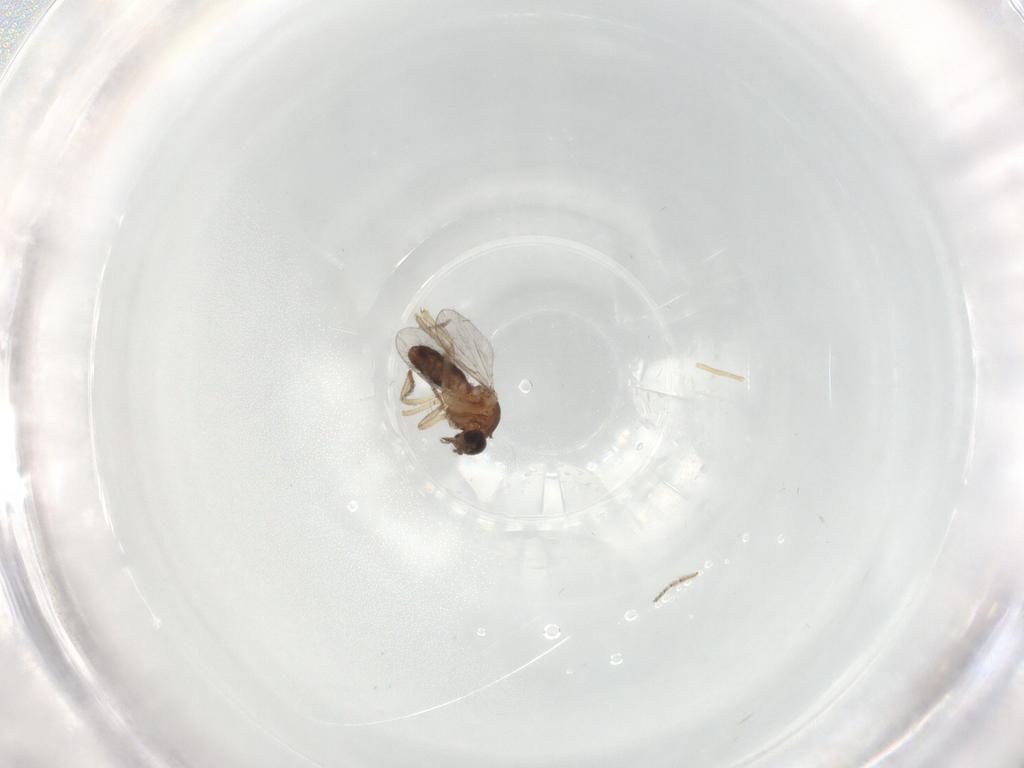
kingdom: Animalia
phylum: Arthropoda
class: Insecta
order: Diptera
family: Ceratopogonidae
